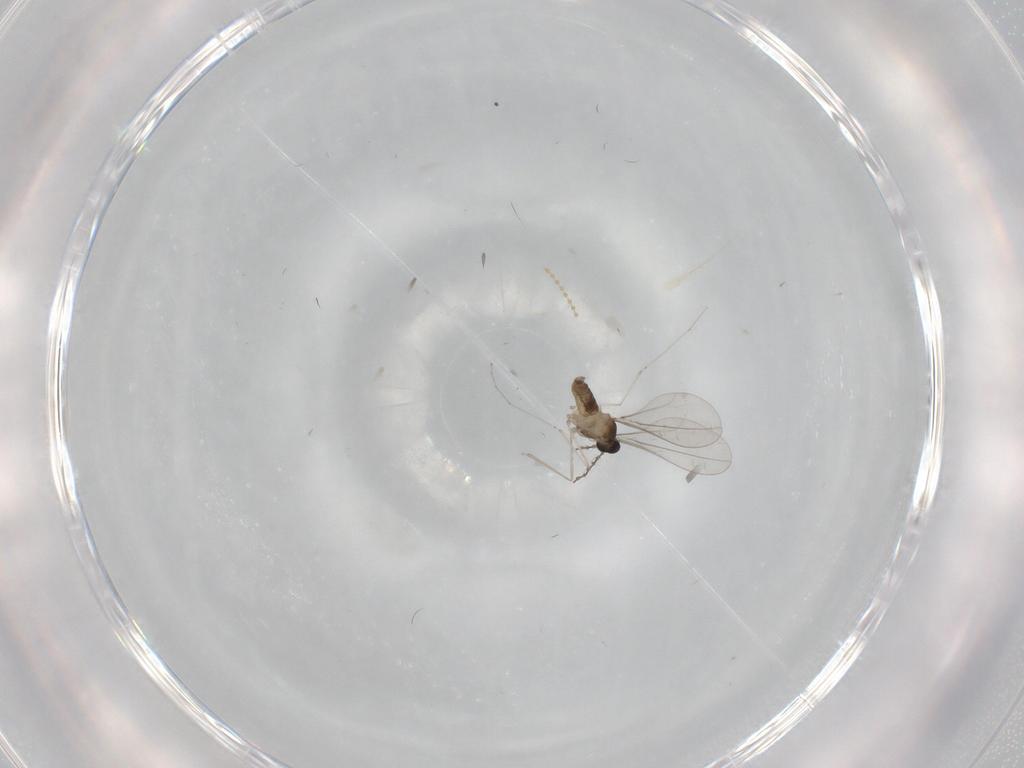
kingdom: Animalia
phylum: Arthropoda
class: Insecta
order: Diptera
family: Cecidomyiidae
